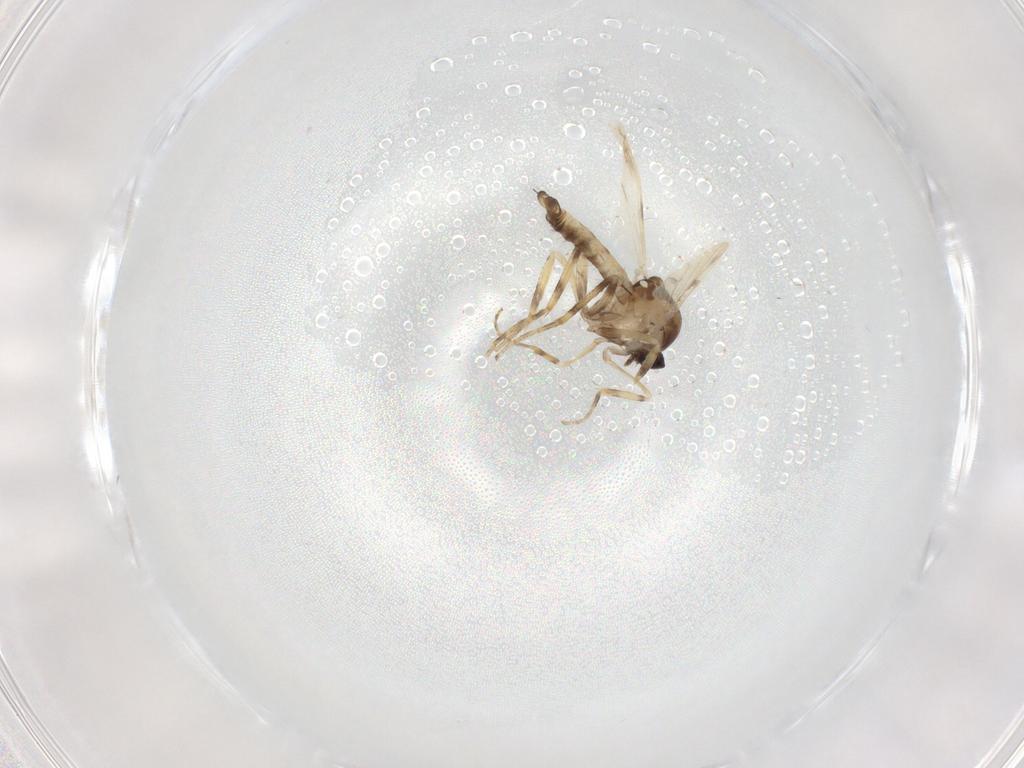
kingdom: Animalia
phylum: Arthropoda
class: Insecta
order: Diptera
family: Ceratopogonidae
